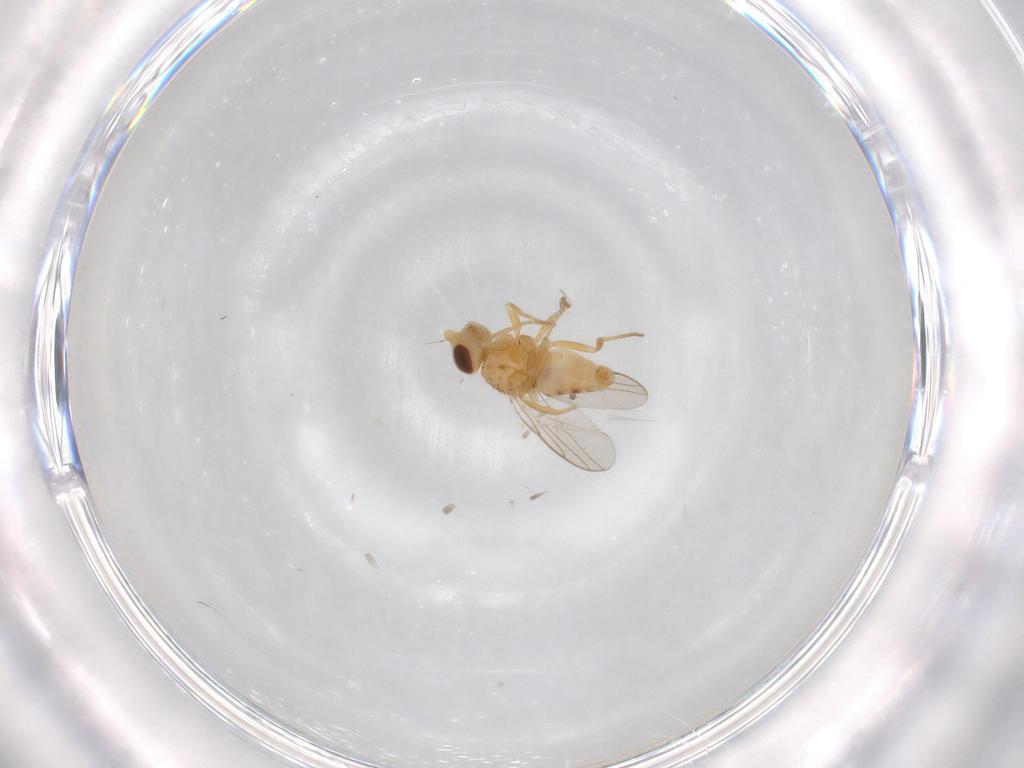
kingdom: Animalia
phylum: Arthropoda
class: Insecta
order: Diptera
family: Chloropidae
